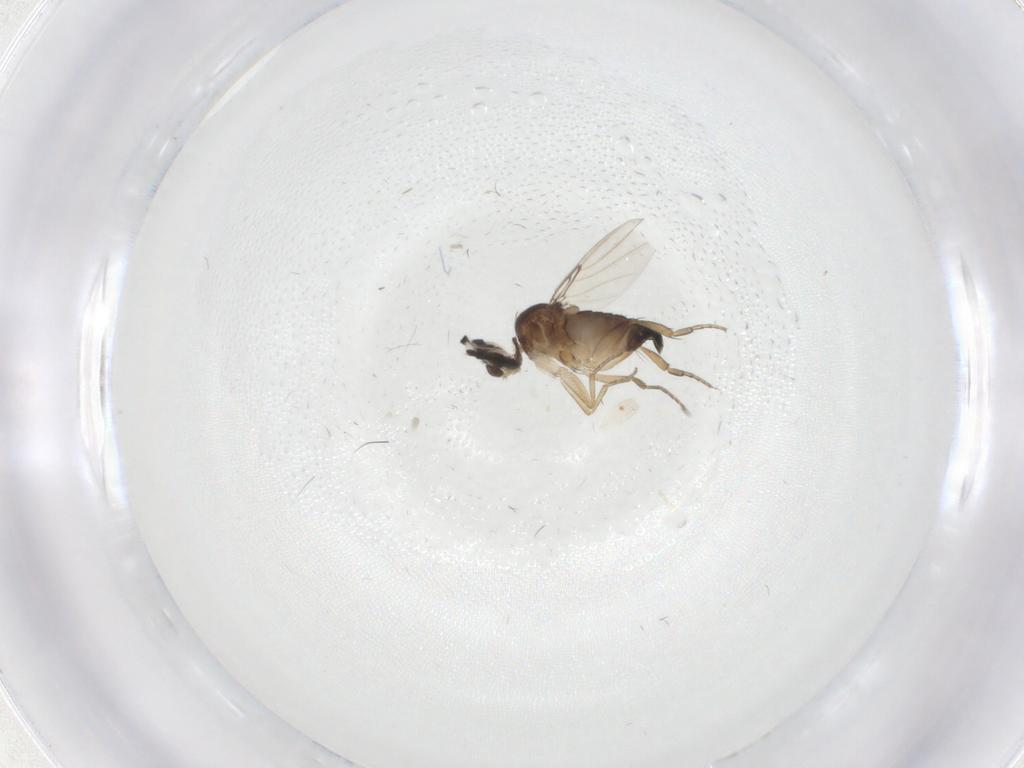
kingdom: Animalia
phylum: Arthropoda
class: Insecta
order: Diptera
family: Phoridae
